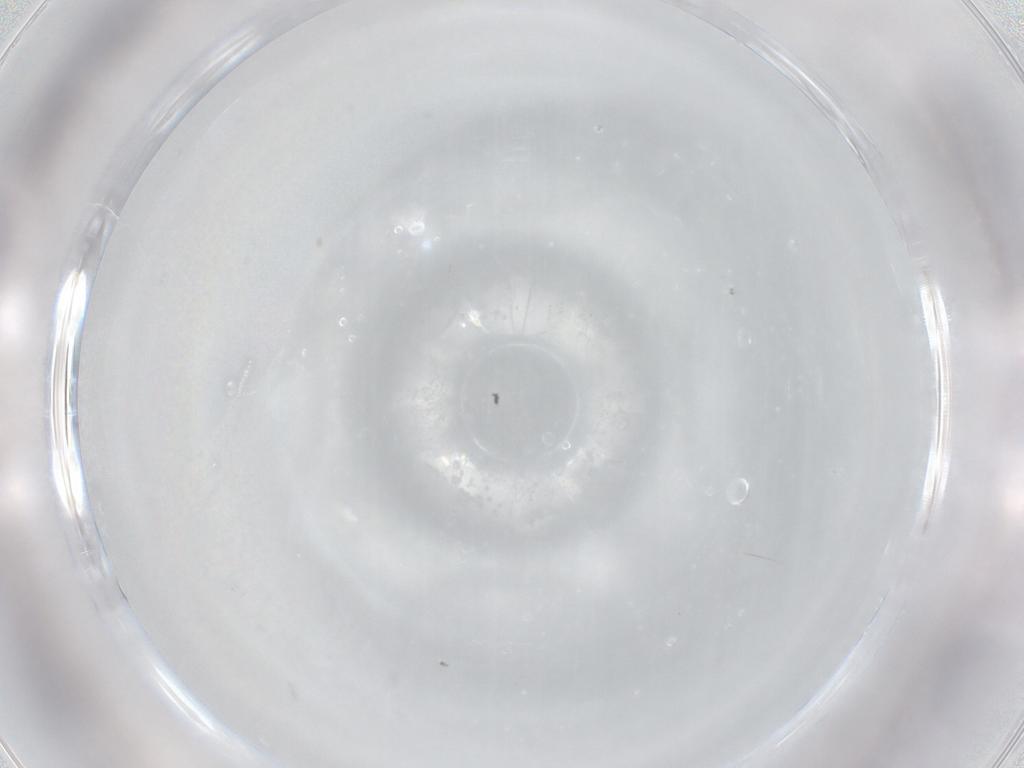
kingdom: Animalia
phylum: Arthropoda
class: Insecta
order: Hymenoptera
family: Mymaridae
